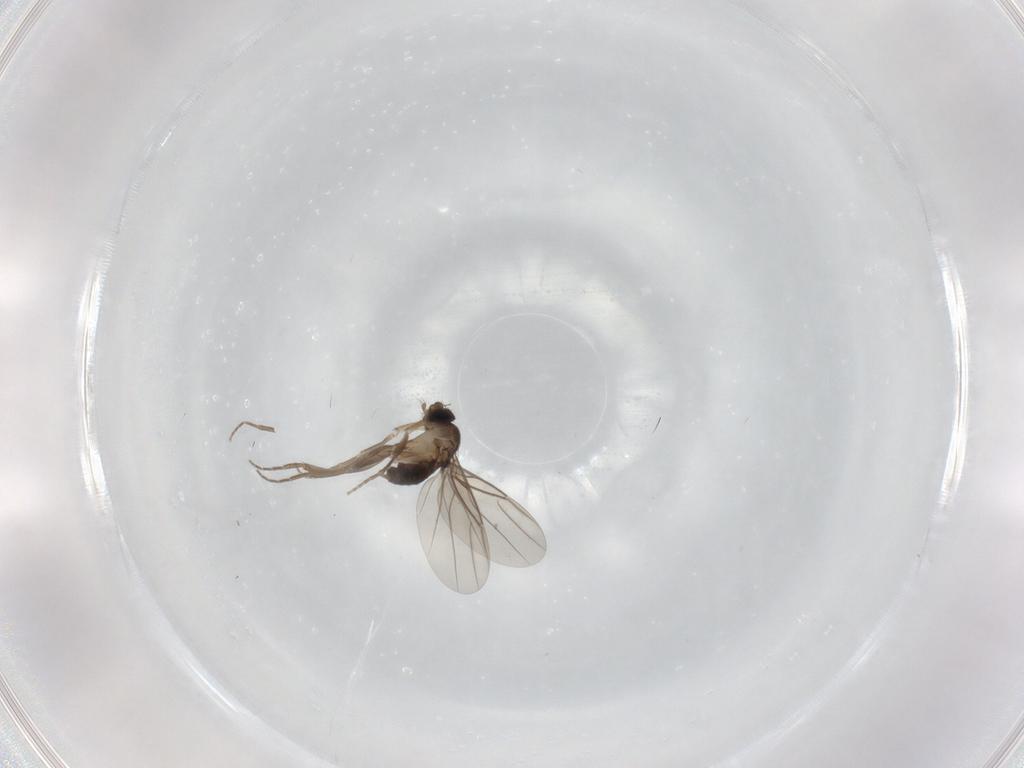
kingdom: Animalia
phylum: Arthropoda
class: Insecta
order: Diptera
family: Phoridae
